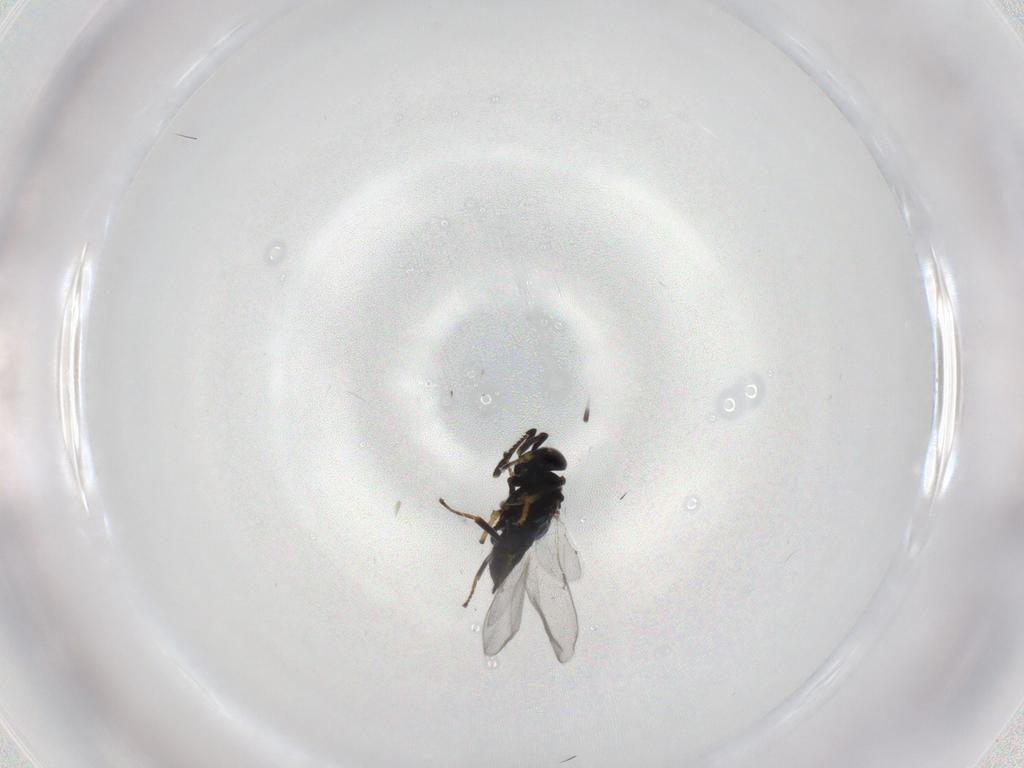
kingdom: Animalia
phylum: Arthropoda
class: Insecta
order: Hymenoptera
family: Encyrtidae
